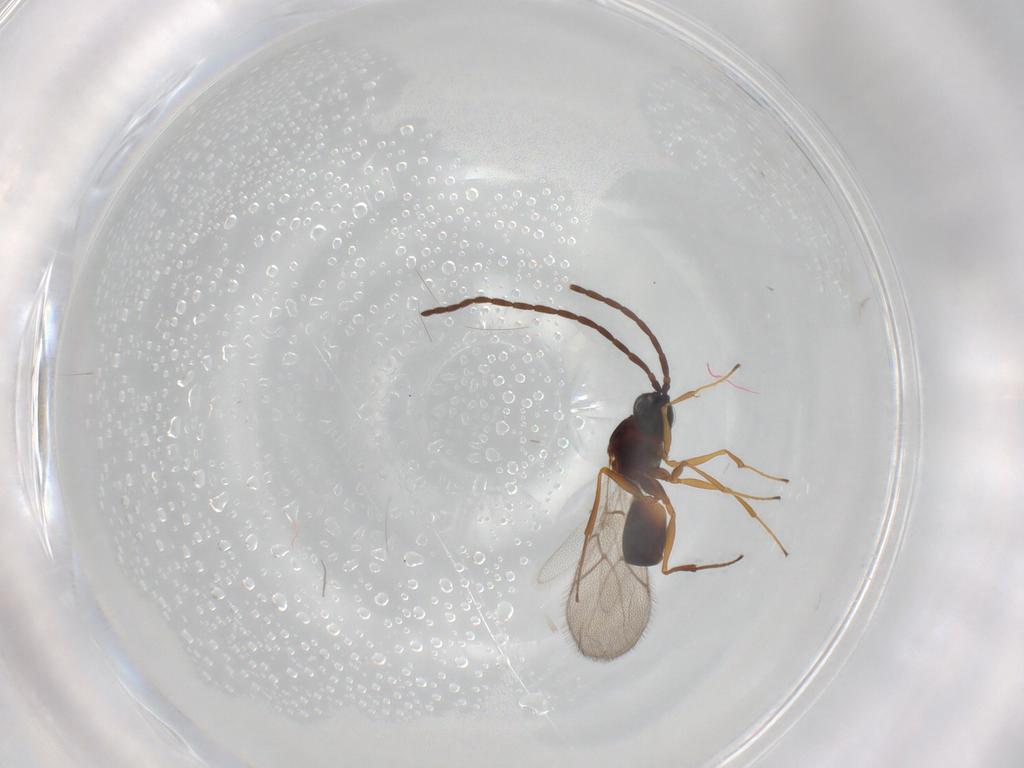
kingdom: Animalia
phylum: Arthropoda
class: Insecta
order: Hymenoptera
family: Figitidae
